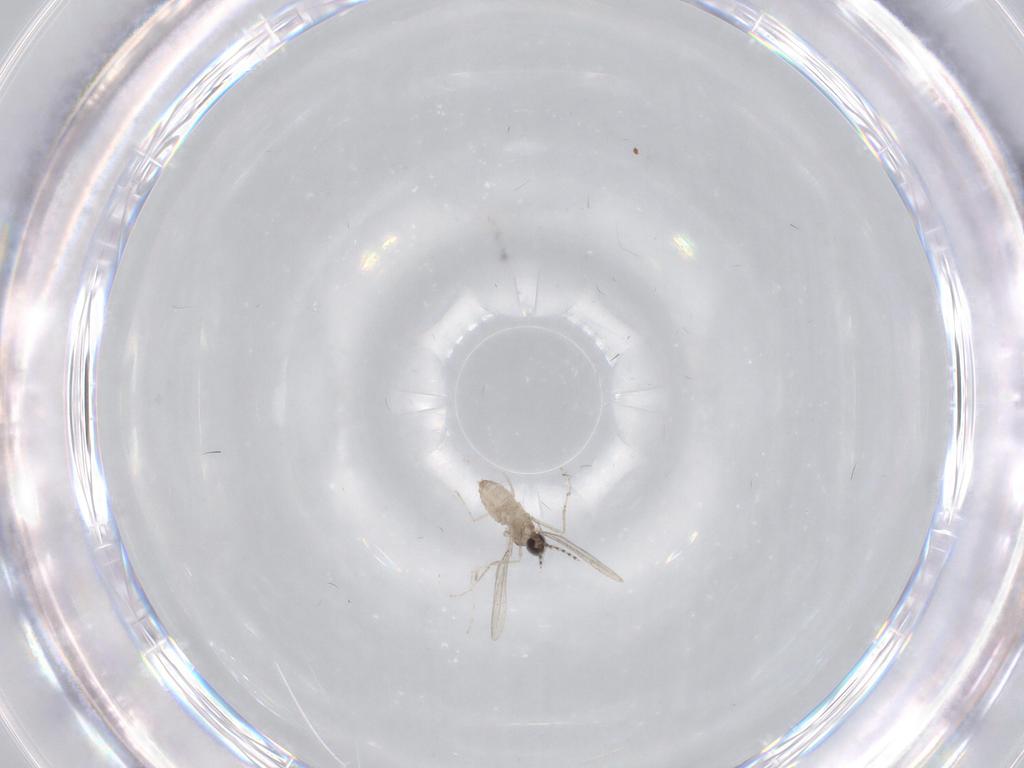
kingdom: Animalia
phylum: Arthropoda
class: Insecta
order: Diptera
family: Cecidomyiidae
